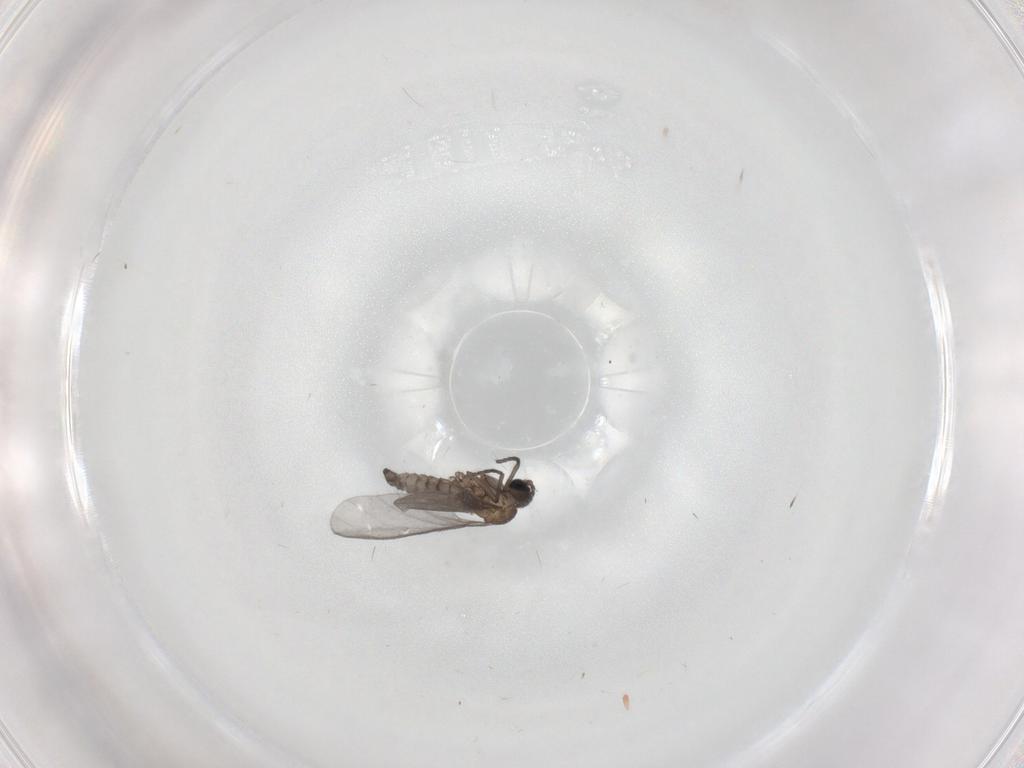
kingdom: Animalia
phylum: Arthropoda
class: Insecta
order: Diptera
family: Sciaridae
